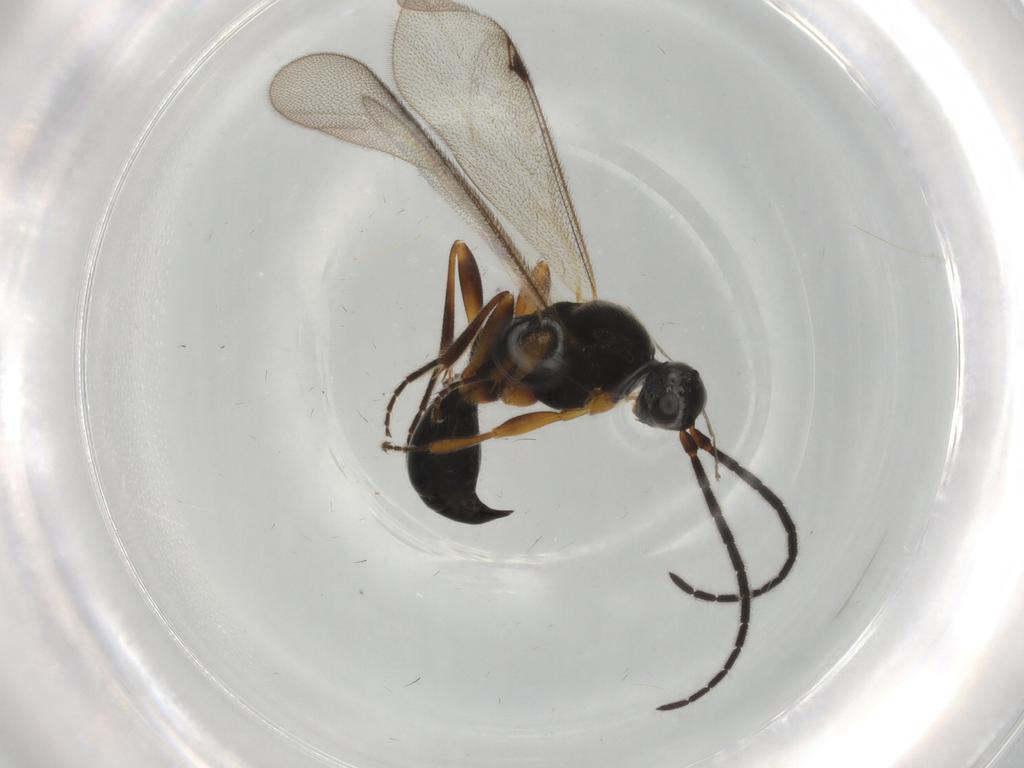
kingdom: Animalia
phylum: Arthropoda
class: Insecta
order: Hymenoptera
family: Proctotrupidae
